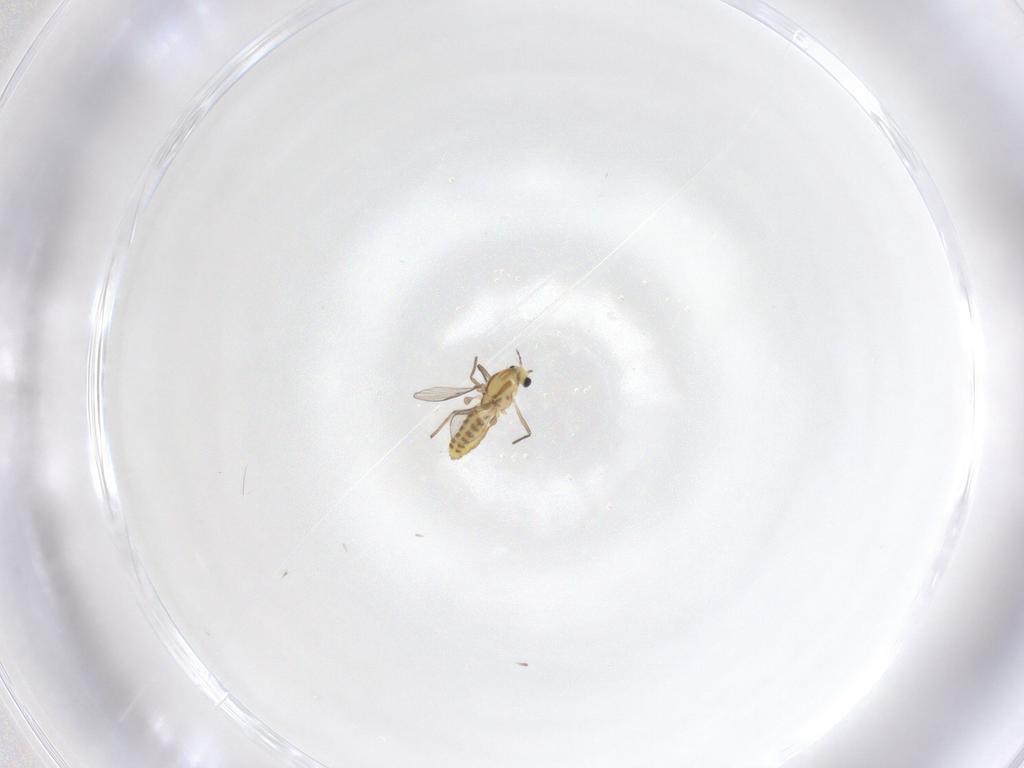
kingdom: Animalia
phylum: Arthropoda
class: Insecta
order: Diptera
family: Chironomidae
